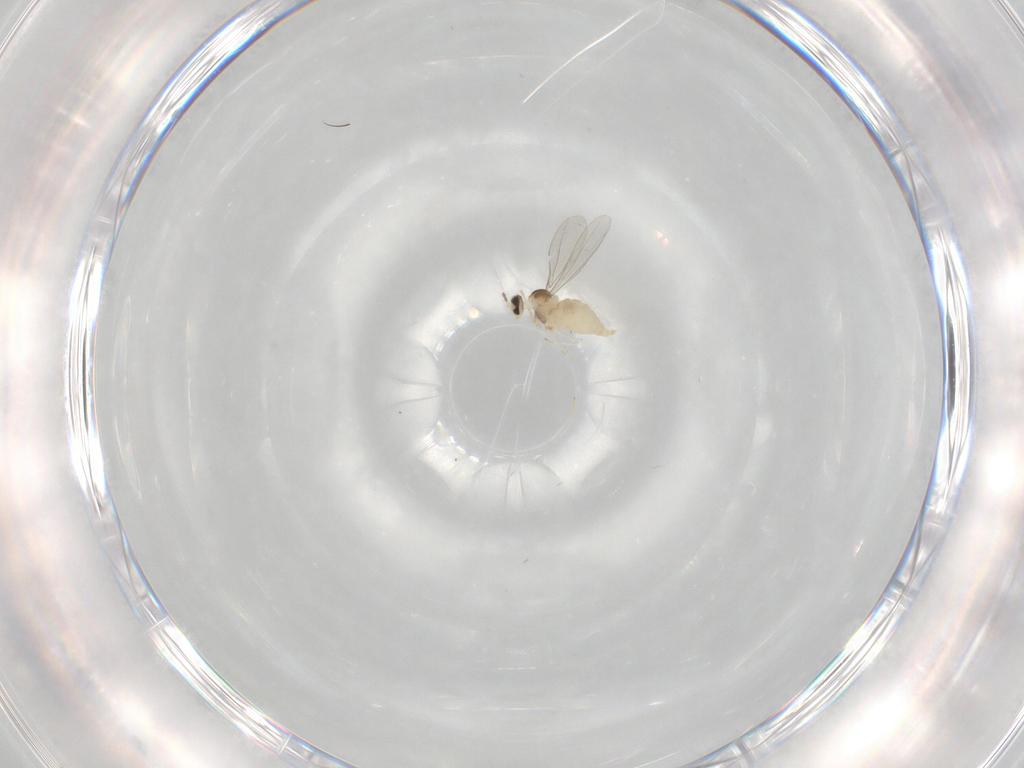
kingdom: Animalia
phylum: Arthropoda
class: Insecta
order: Diptera
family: Cecidomyiidae
